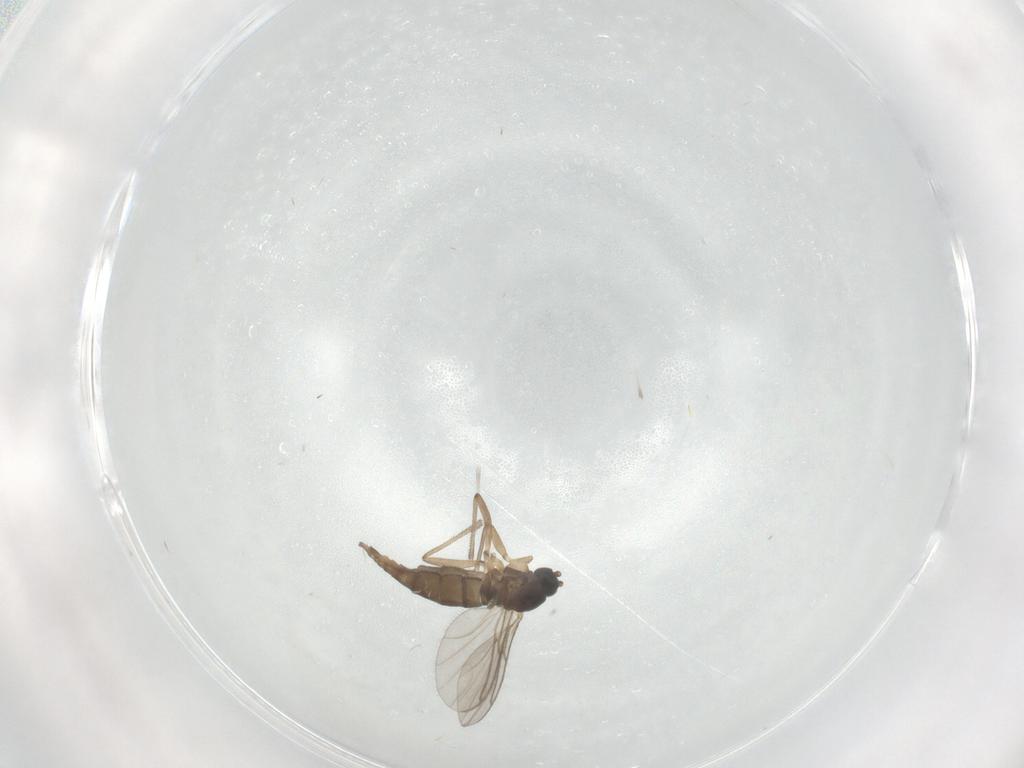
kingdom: Animalia
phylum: Arthropoda
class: Insecta
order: Diptera
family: Sciaridae
